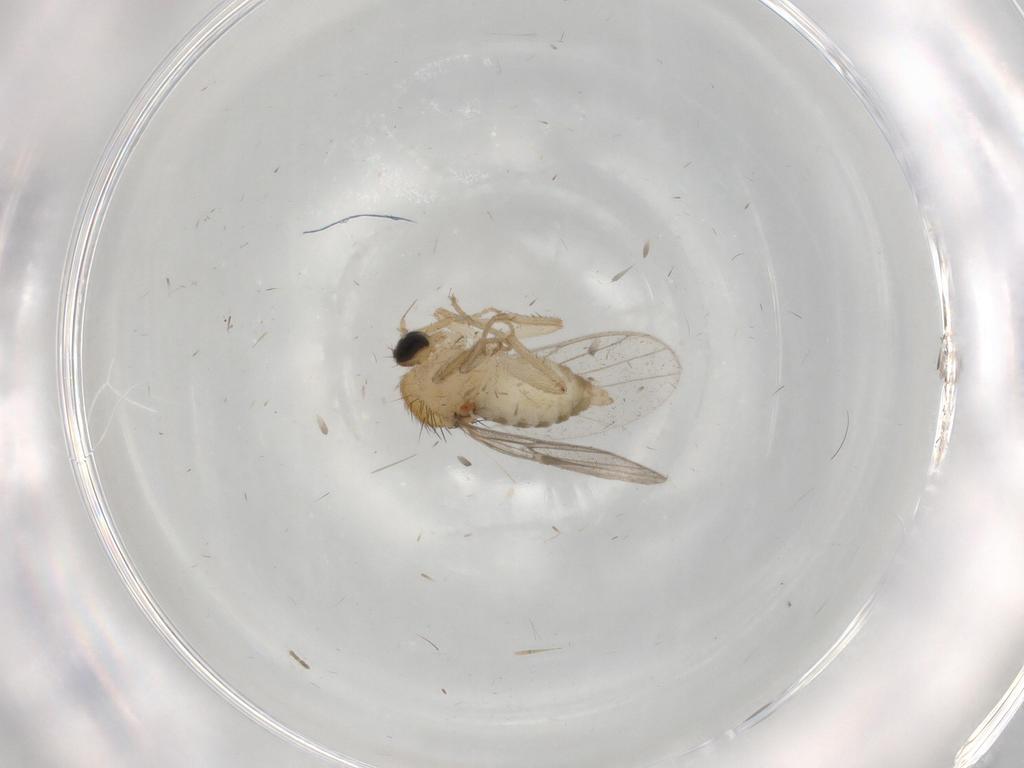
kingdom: Animalia
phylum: Arthropoda
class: Insecta
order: Diptera
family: Hybotidae
